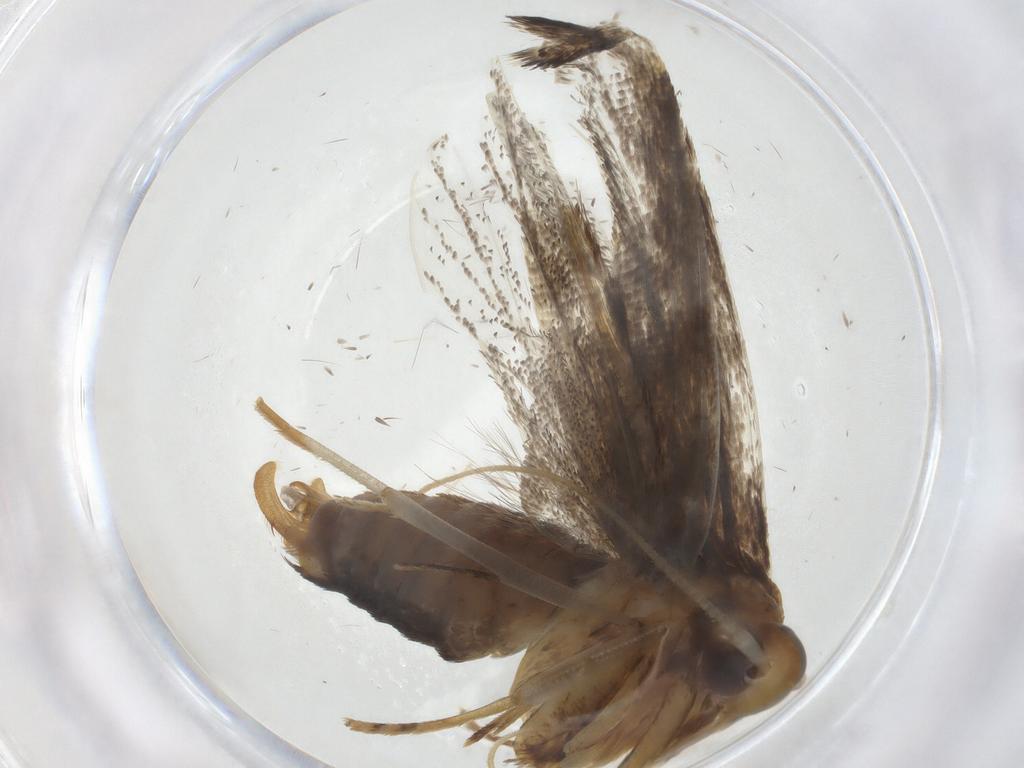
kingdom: Animalia
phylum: Arthropoda
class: Insecta
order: Lepidoptera
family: Lecithoceridae
